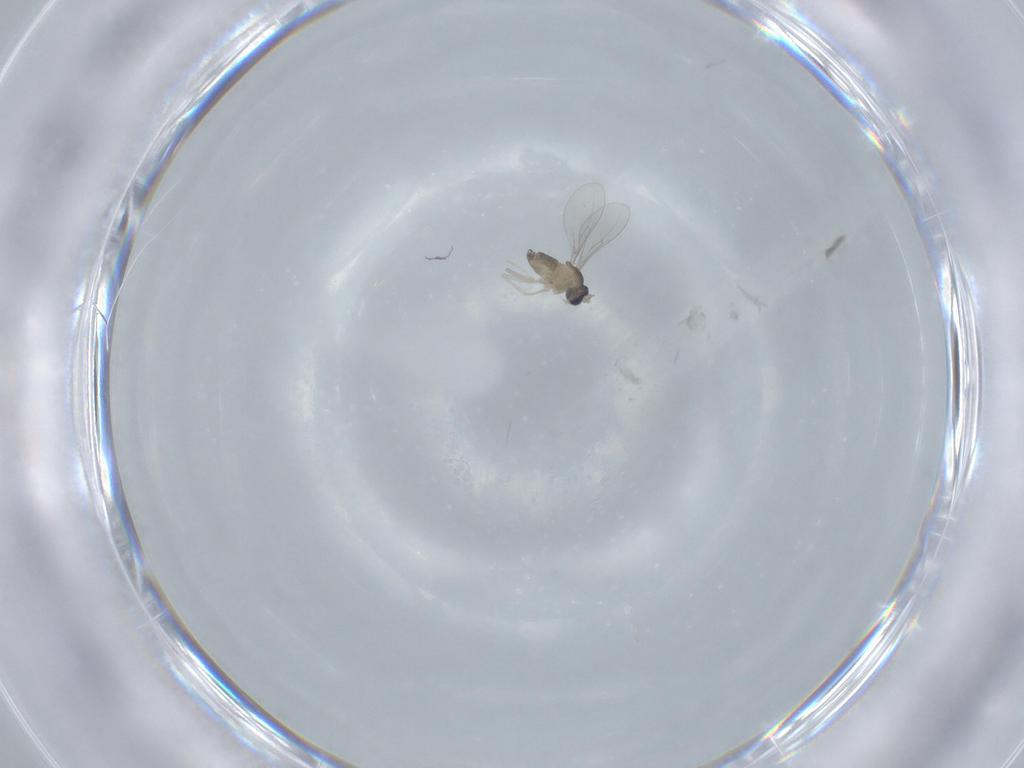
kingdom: Animalia
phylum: Arthropoda
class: Insecta
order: Diptera
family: Cecidomyiidae
